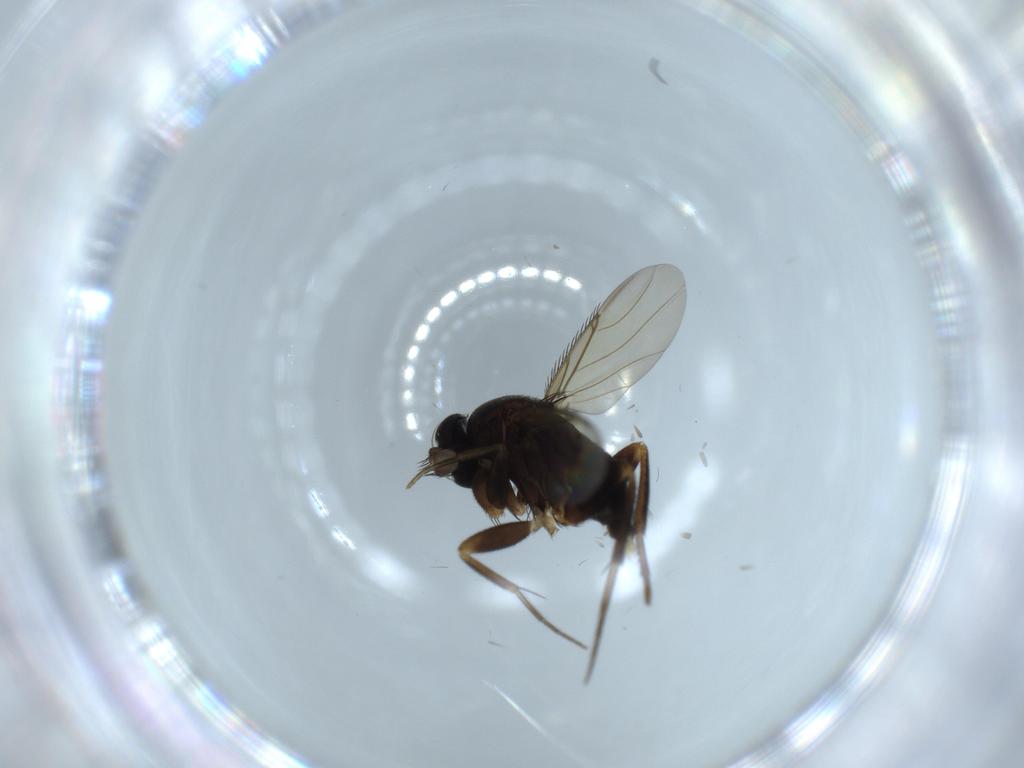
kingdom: Animalia
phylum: Arthropoda
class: Insecta
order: Diptera
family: Phoridae
